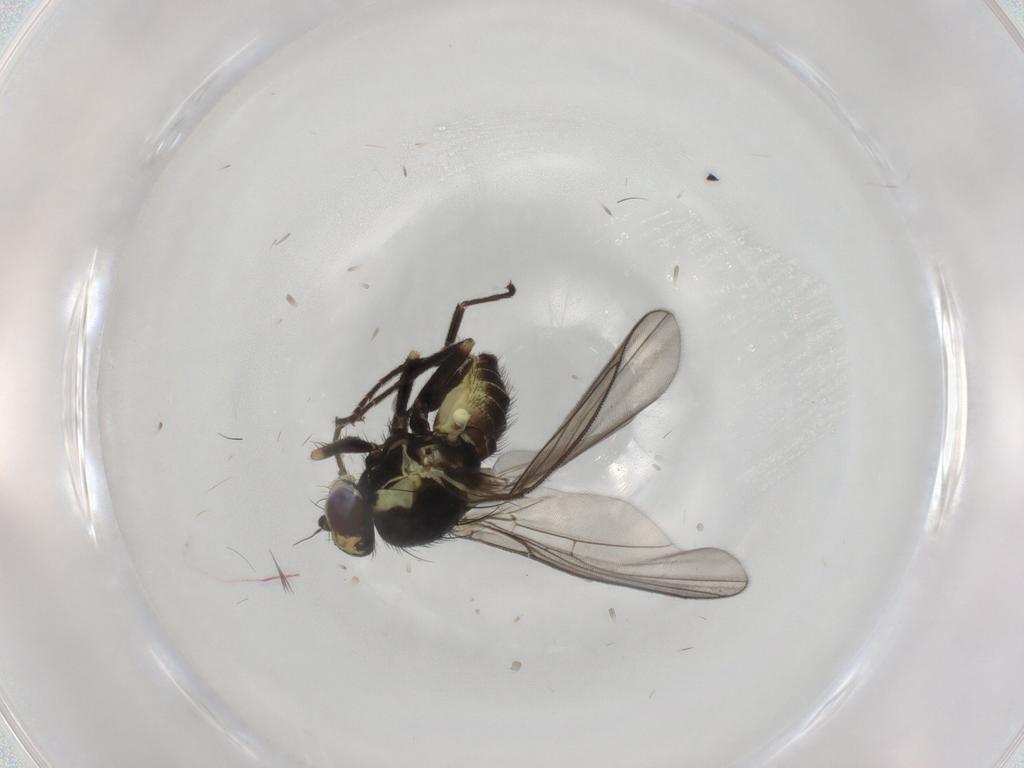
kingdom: Animalia
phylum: Arthropoda
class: Insecta
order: Diptera
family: Agromyzidae
